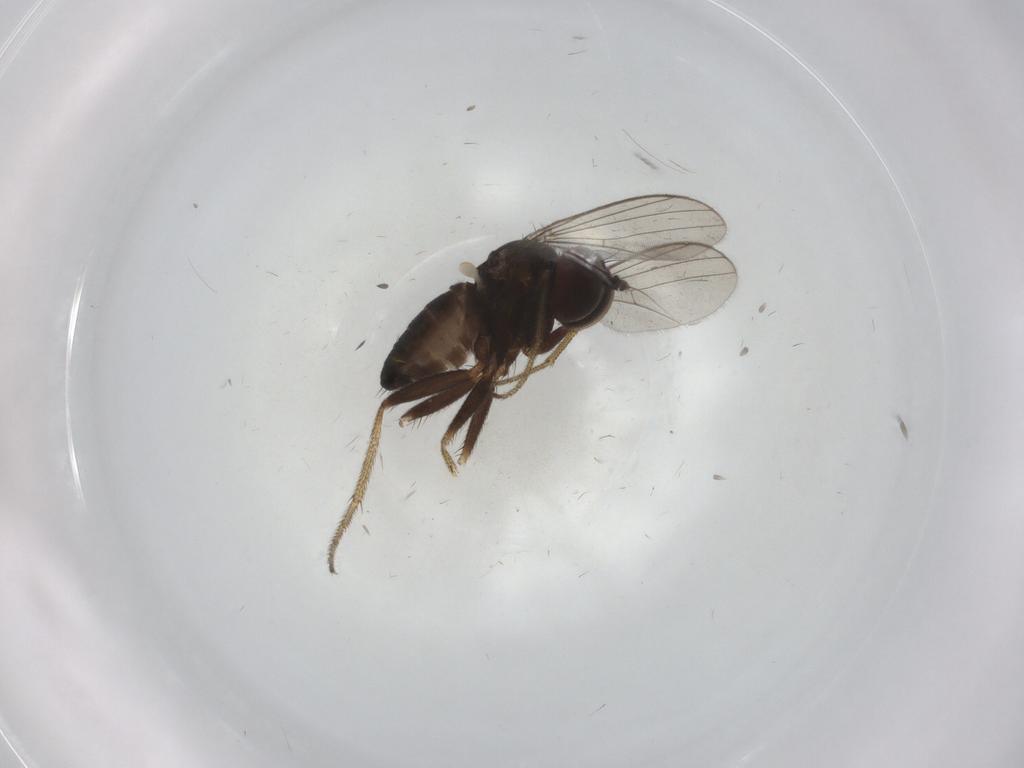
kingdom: Animalia
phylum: Arthropoda
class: Insecta
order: Diptera
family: Dolichopodidae
